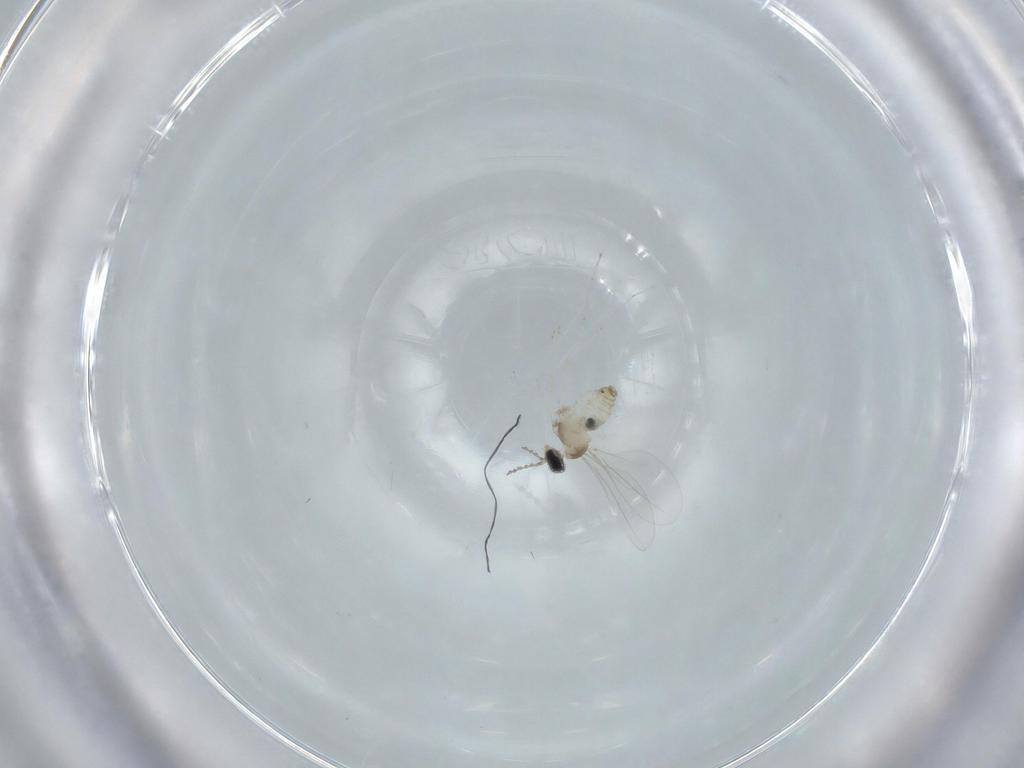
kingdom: Animalia
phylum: Arthropoda
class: Insecta
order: Diptera
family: Cecidomyiidae
